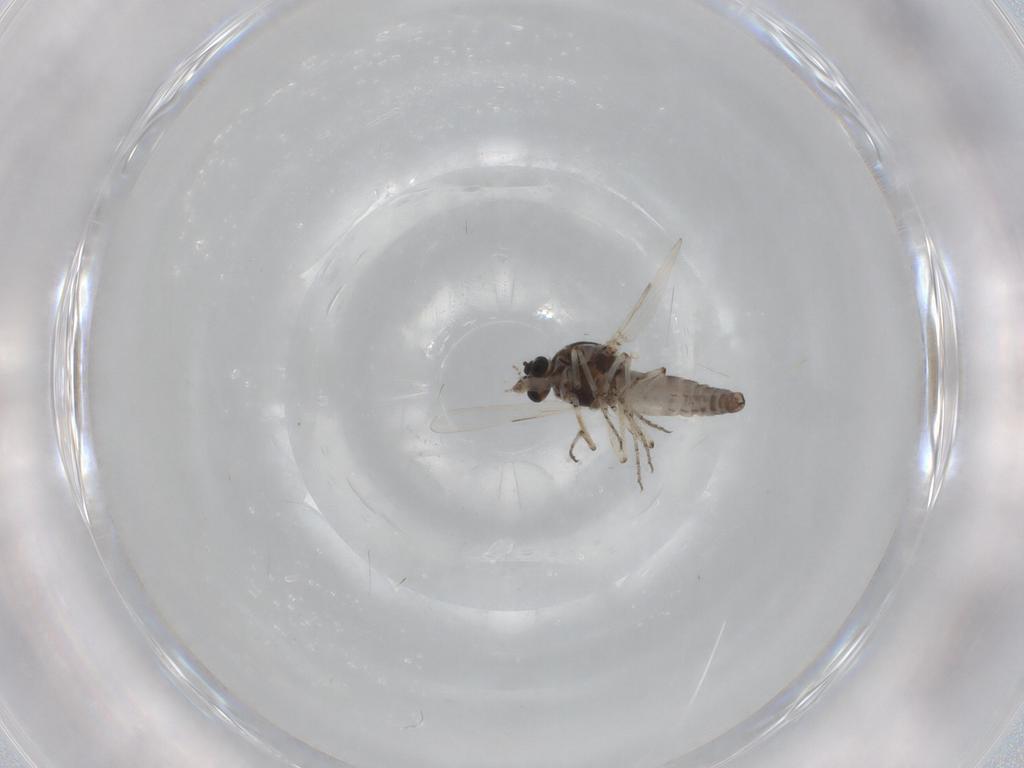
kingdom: Animalia
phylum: Arthropoda
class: Insecta
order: Diptera
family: Ceratopogonidae
